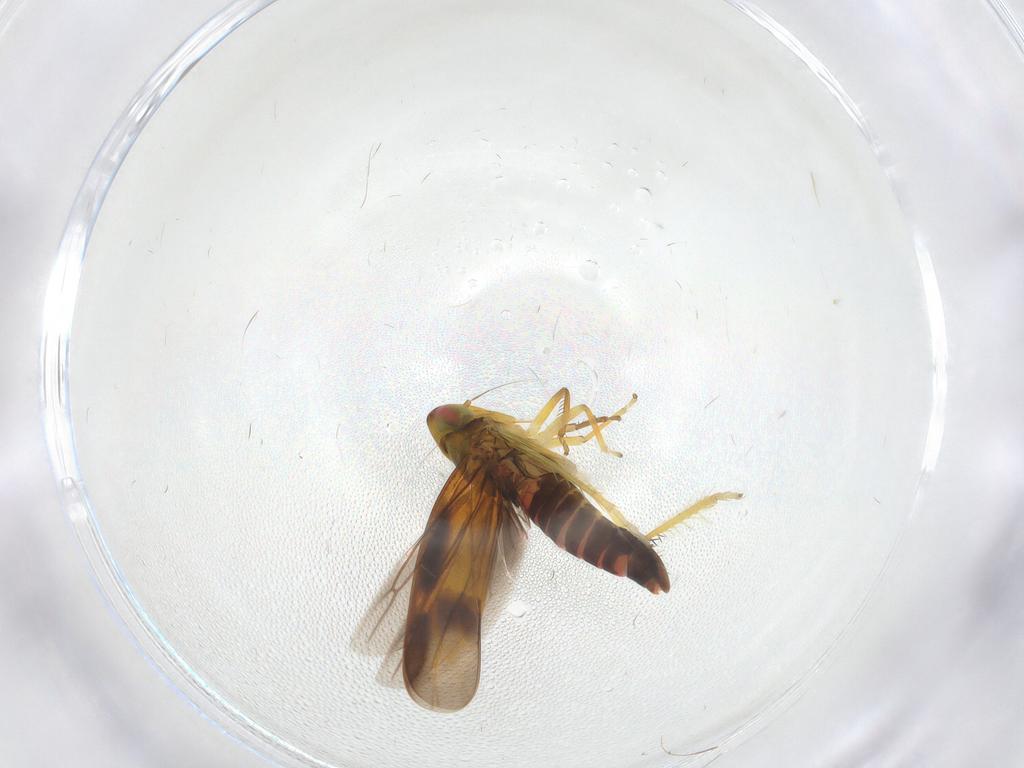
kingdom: Animalia
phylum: Arthropoda
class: Insecta
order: Hemiptera
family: Cicadellidae
